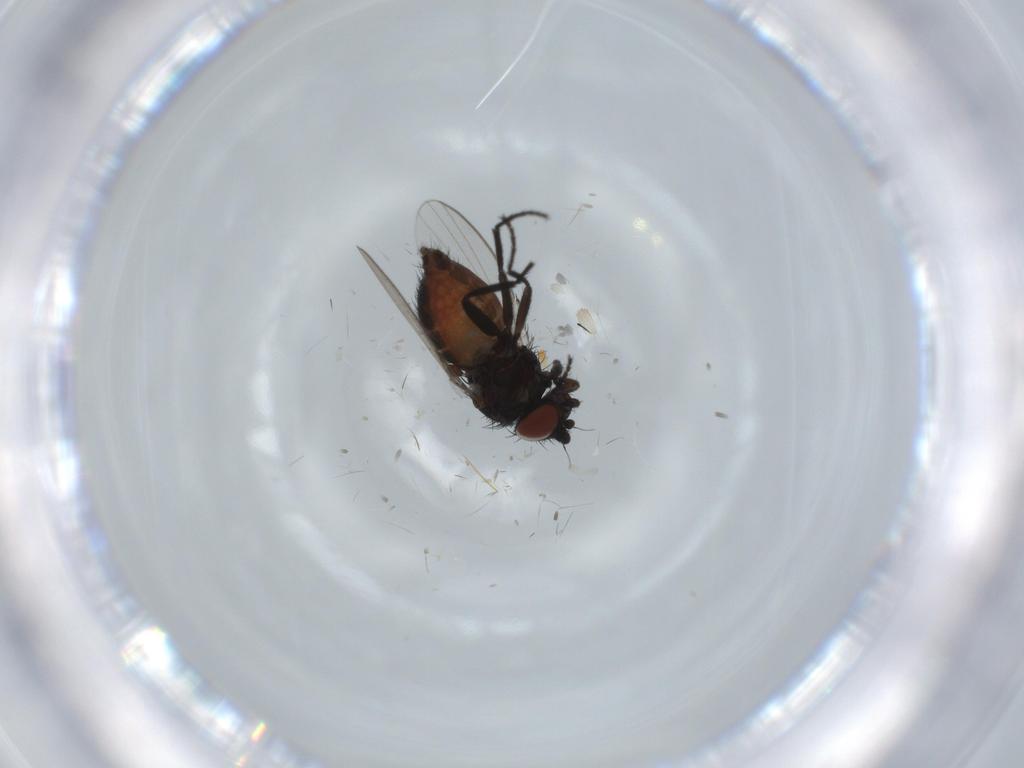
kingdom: Animalia
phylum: Arthropoda
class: Insecta
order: Diptera
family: Milichiidae
